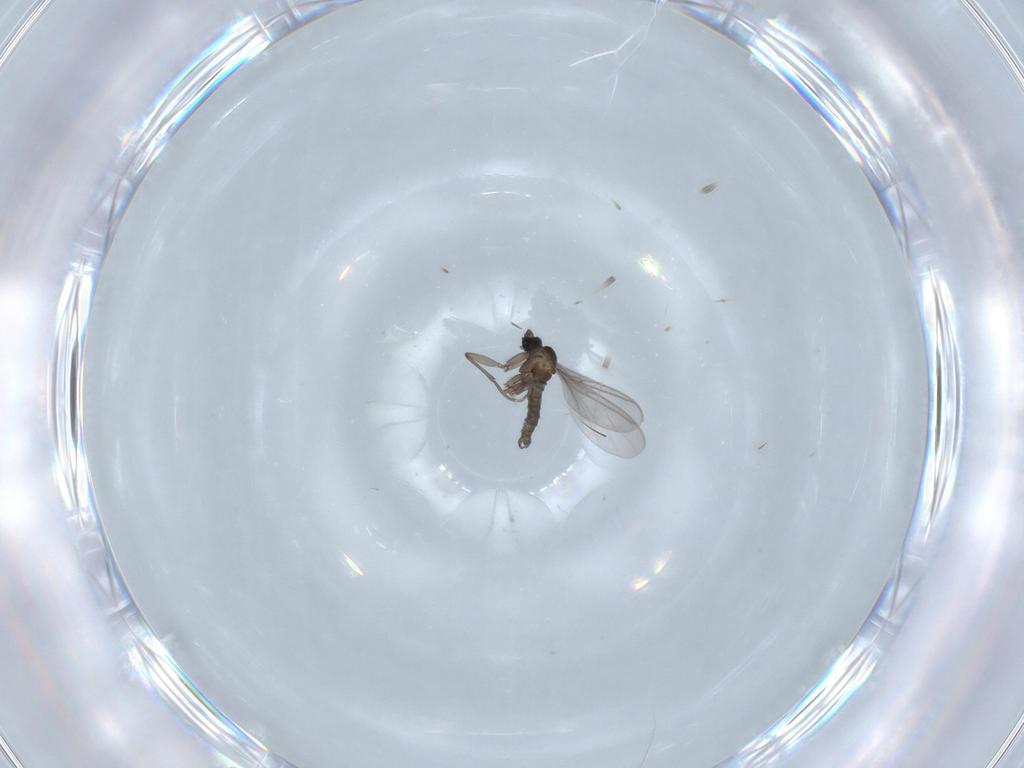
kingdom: Animalia
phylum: Arthropoda
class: Insecta
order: Diptera
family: Sciaridae
